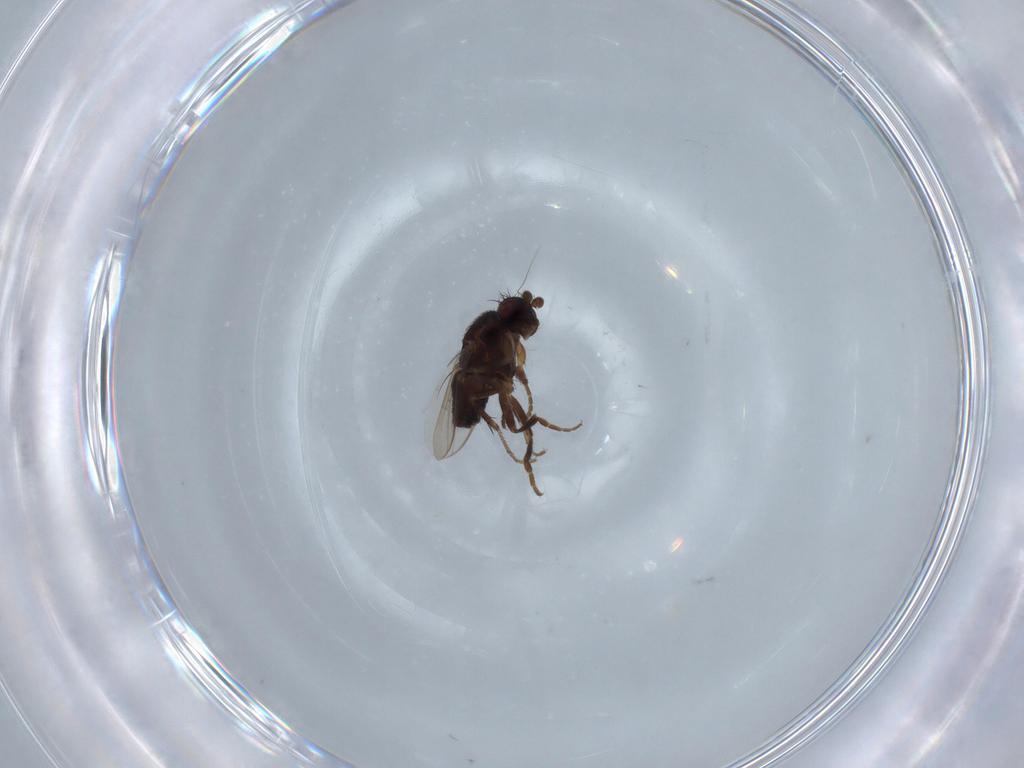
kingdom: Animalia
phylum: Arthropoda
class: Insecta
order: Diptera
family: Sphaeroceridae
